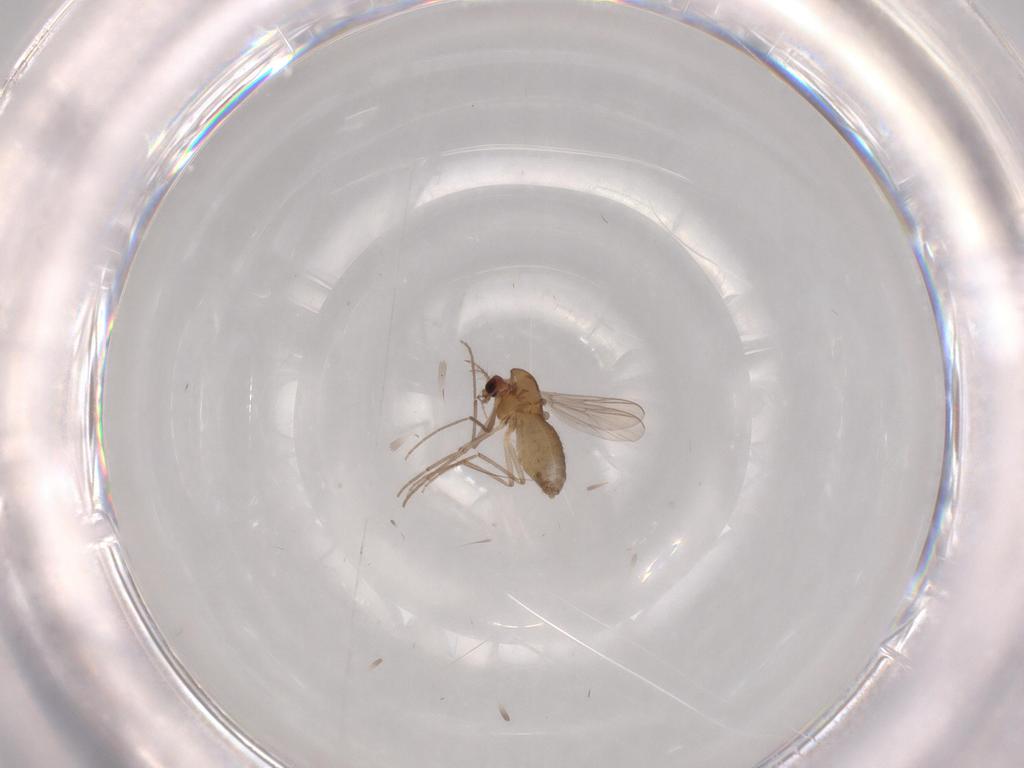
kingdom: Animalia
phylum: Arthropoda
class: Insecta
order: Diptera
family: Chironomidae
